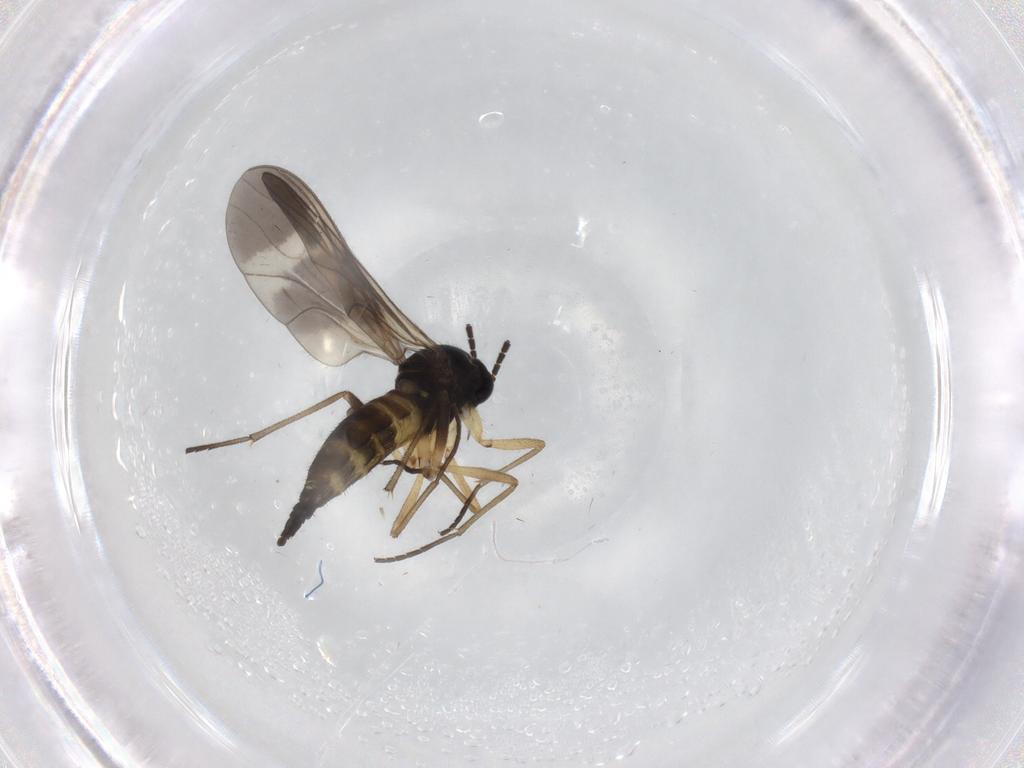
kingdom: Animalia
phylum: Arthropoda
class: Insecta
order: Diptera
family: Sciaridae
